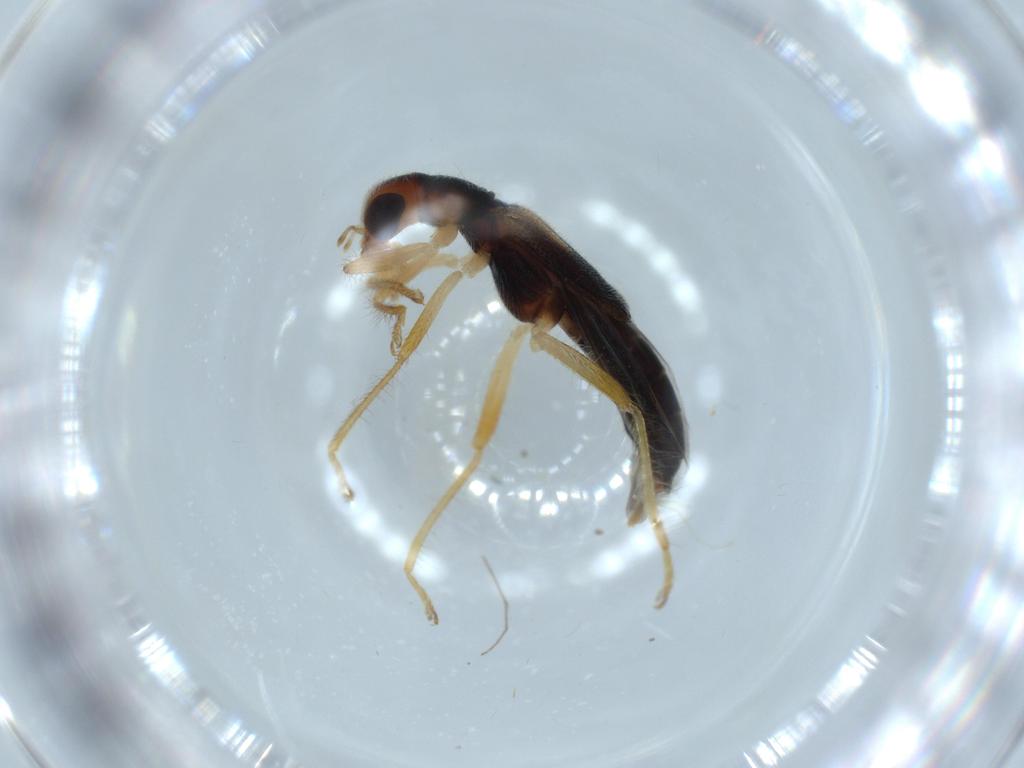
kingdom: Animalia
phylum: Arthropoda
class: Insecta
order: Coleoptera
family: Cleridae
